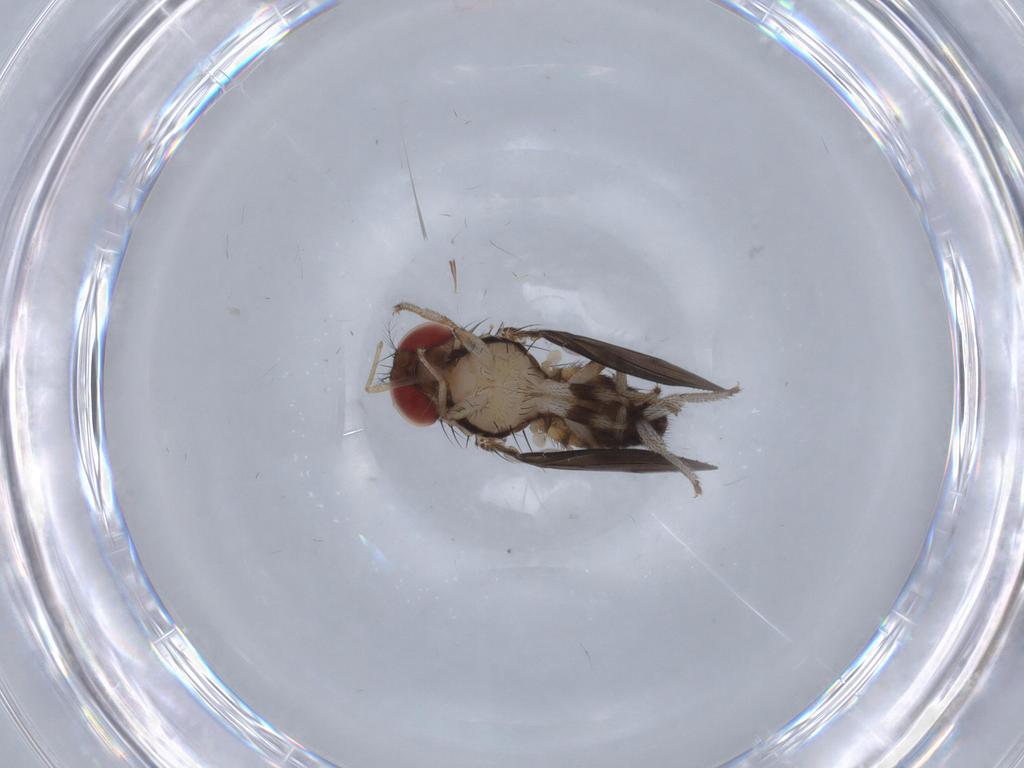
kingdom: Animalia
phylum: Arthropoda
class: Insecta
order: Diptera
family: Drosophilidae
